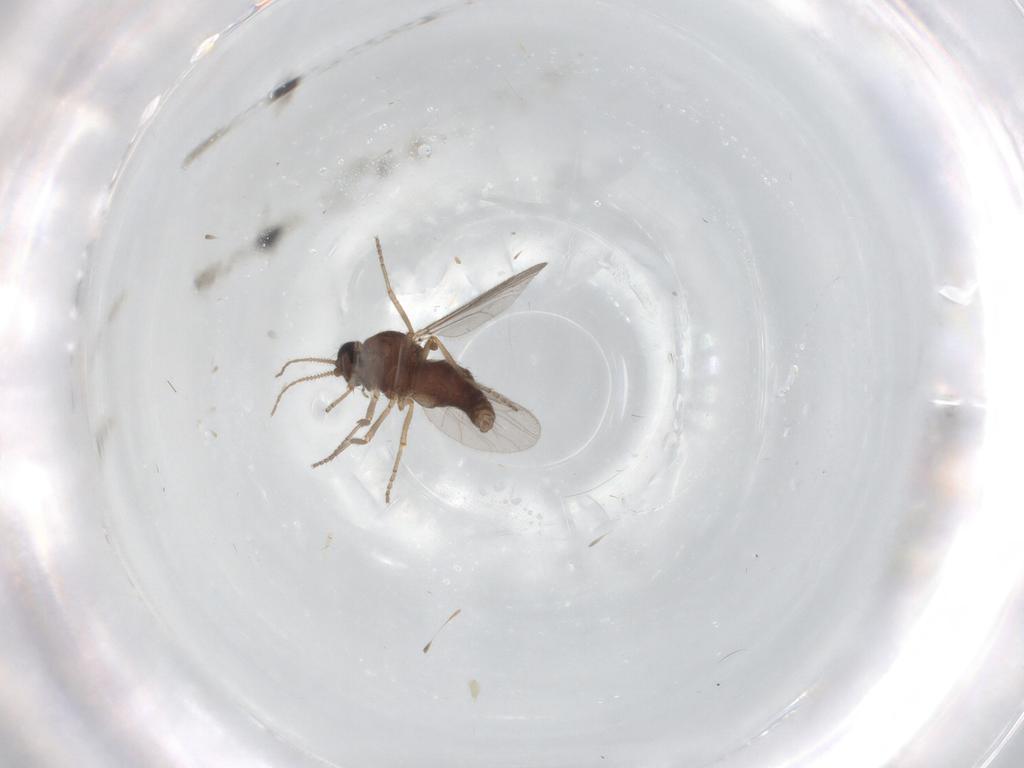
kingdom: Animalia
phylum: Arthropoda
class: Insecta
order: Diptera
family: Ceratopogonidae
